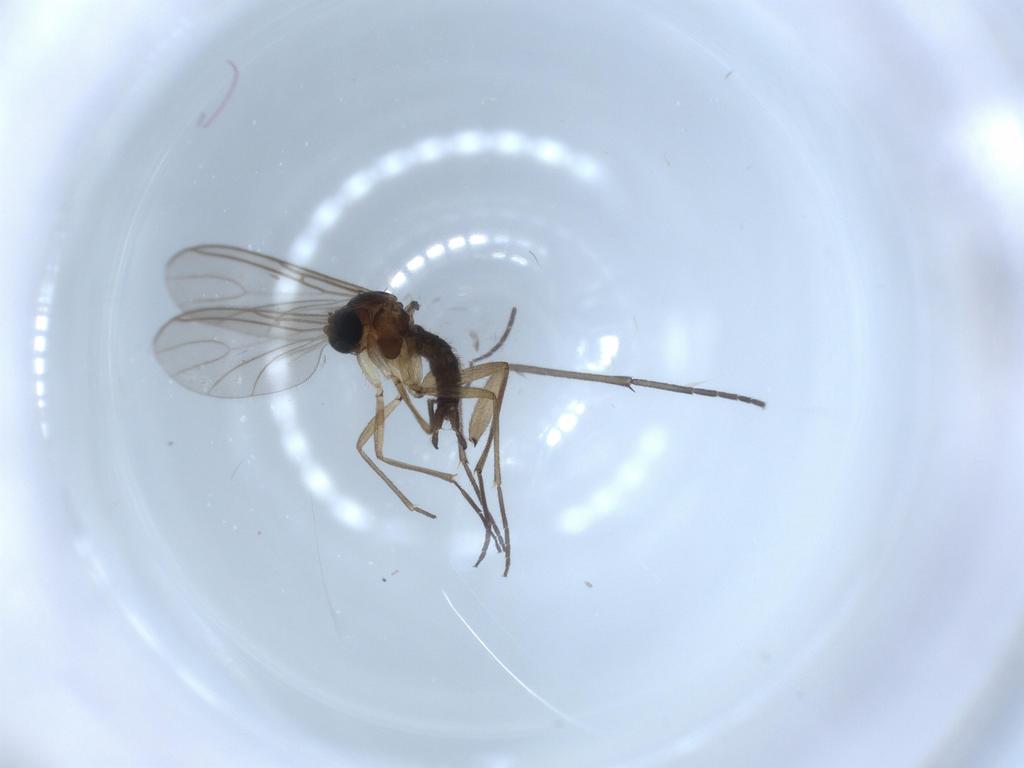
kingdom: Animalia
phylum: Arthropoda
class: Insecta
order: Diptera
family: Sciaridae
